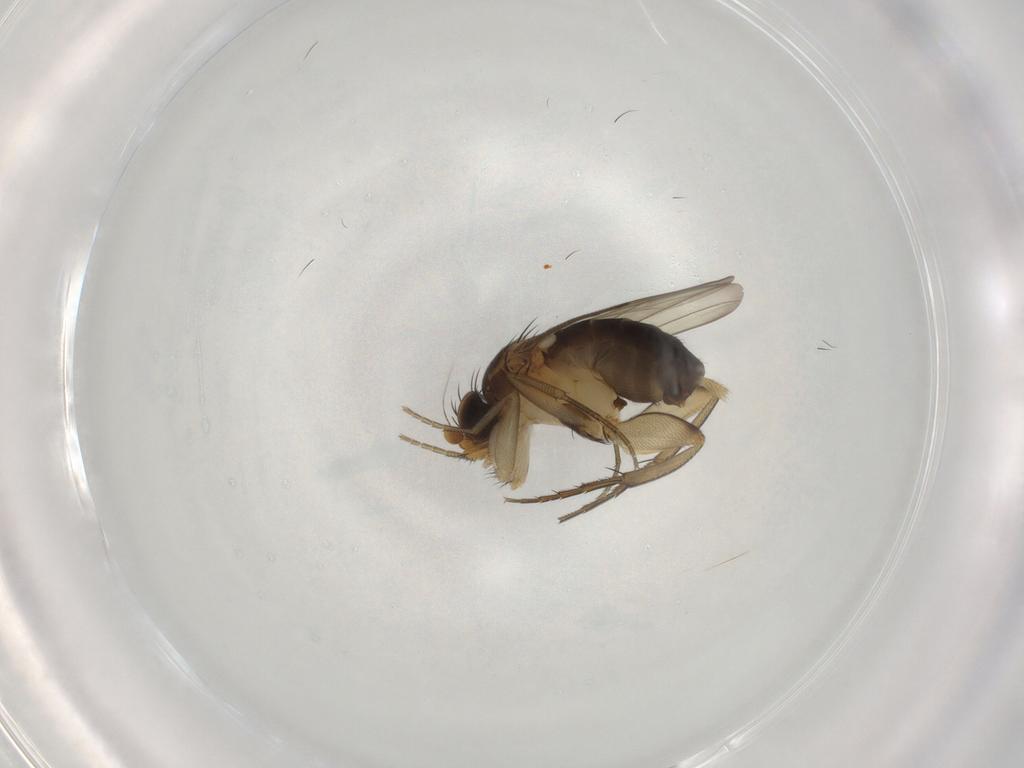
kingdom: Animalia
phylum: Arthropoda
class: Insecta
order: Diptera
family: Phoridae
